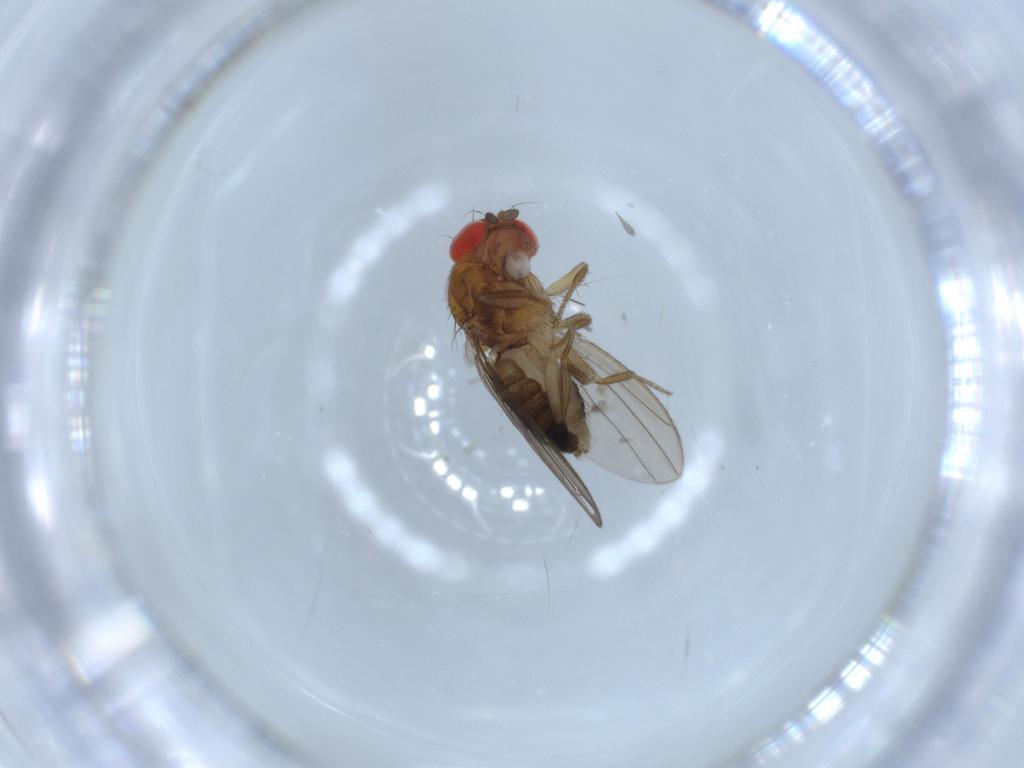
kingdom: Animalia
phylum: Arthropoda
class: Insecta
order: Diptera
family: Drosophilidae
